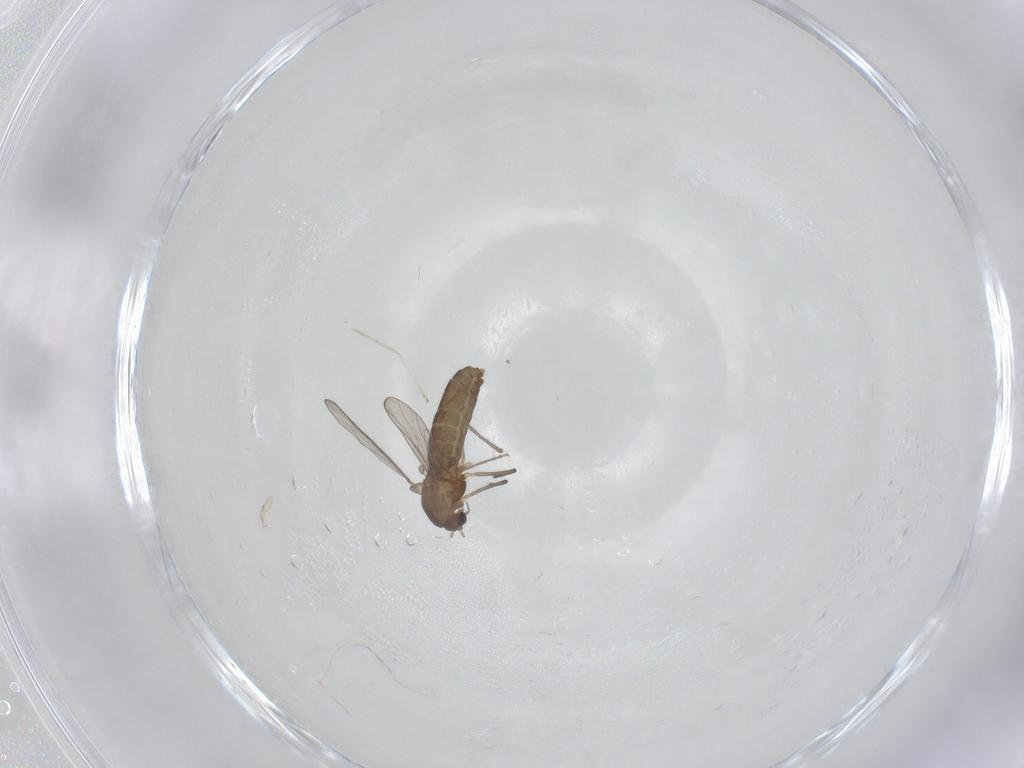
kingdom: Animalia
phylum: Arthropoda
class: Insecta
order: Diptera
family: Chironomidae
